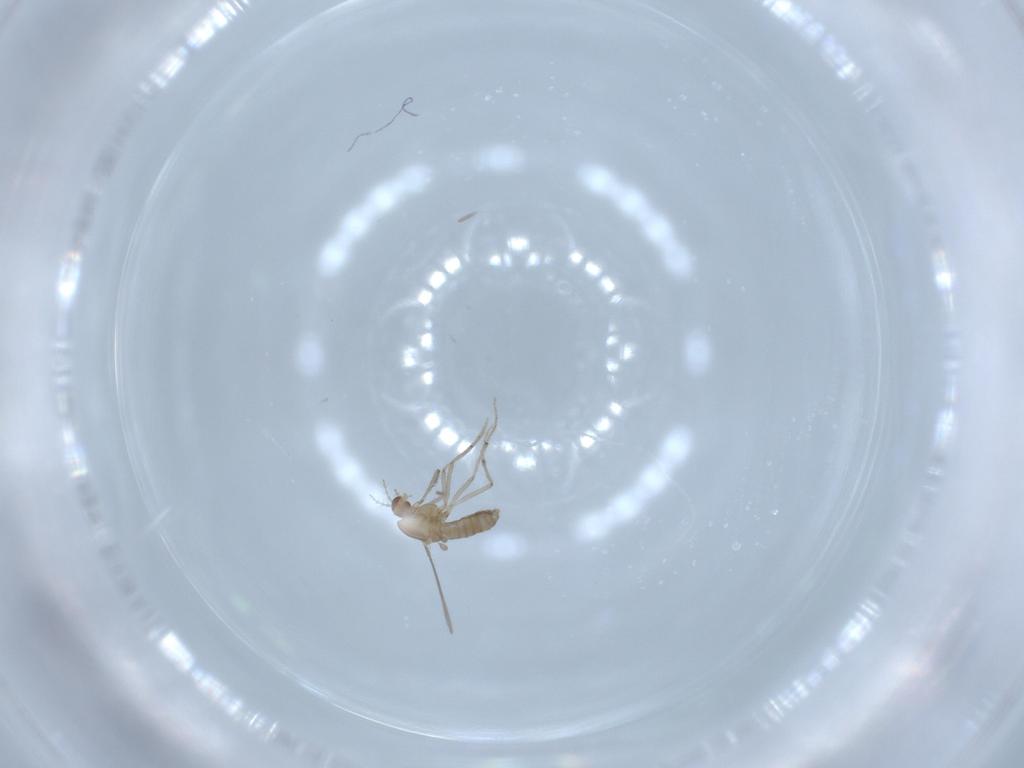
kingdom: Animalia
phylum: Arthropoda
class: Insecta
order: Diptera
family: Chironomidae
